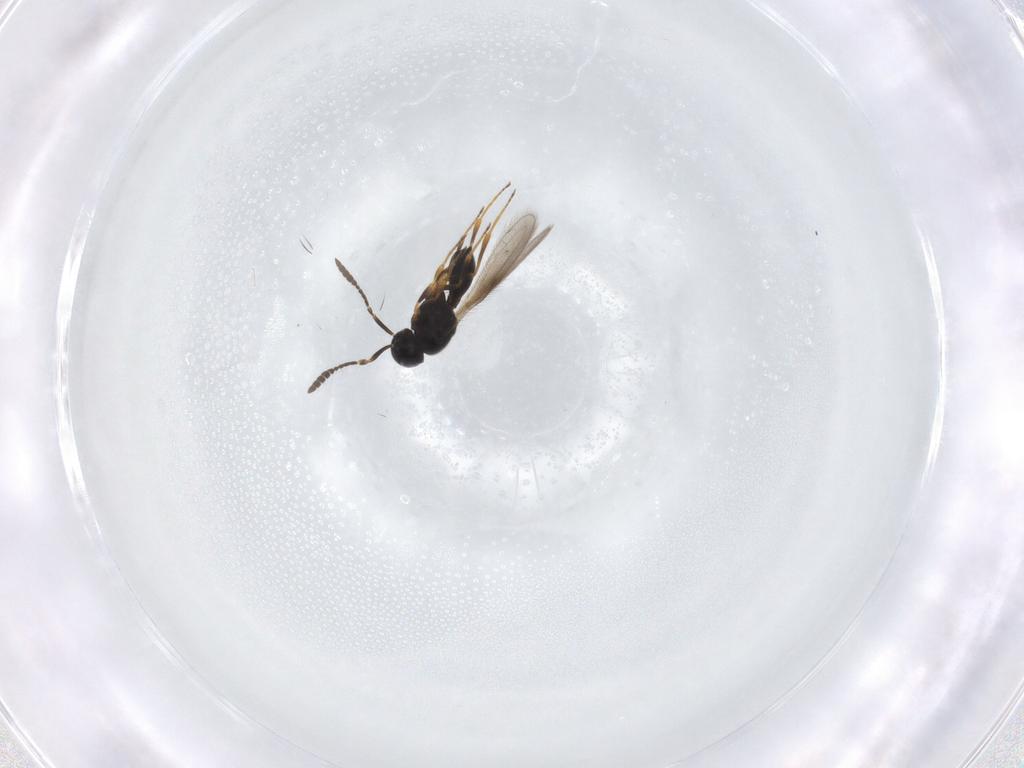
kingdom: Animalia
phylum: Arthropoda
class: Insecta
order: Hymenoptera
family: Scelionidae
